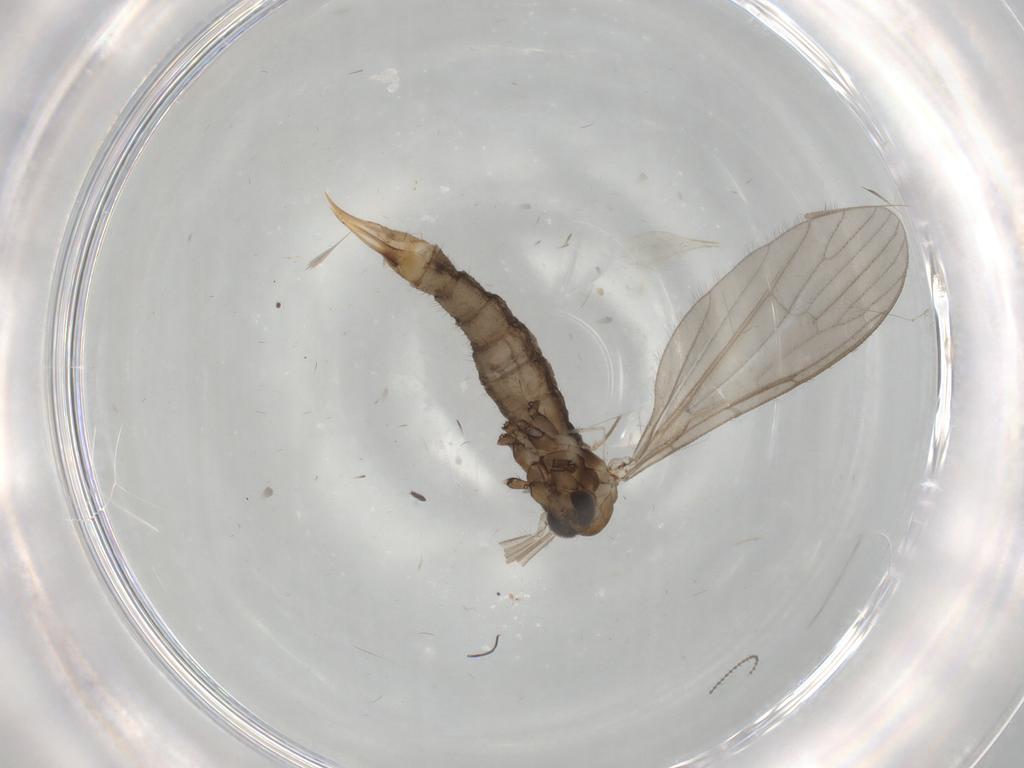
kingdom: Animalia
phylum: Arthropoda
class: Insecta
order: Diptera
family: Limoniidae
